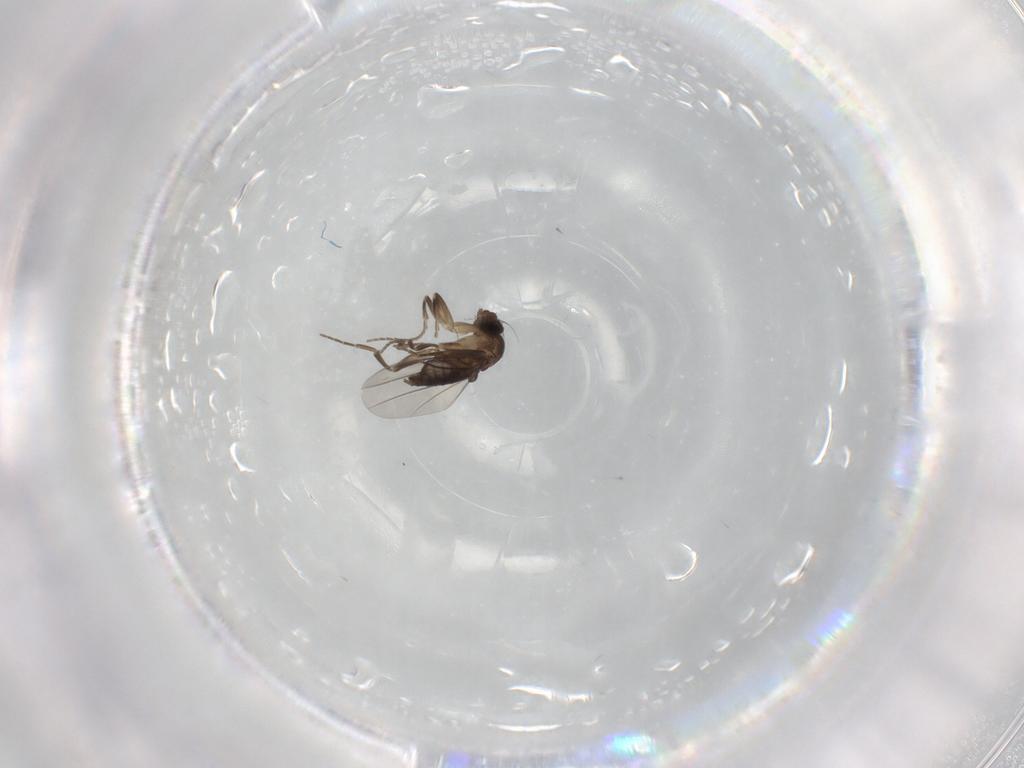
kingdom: Animalia
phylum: Arthropoda
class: Insecta
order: Diptera
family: Phoridae
